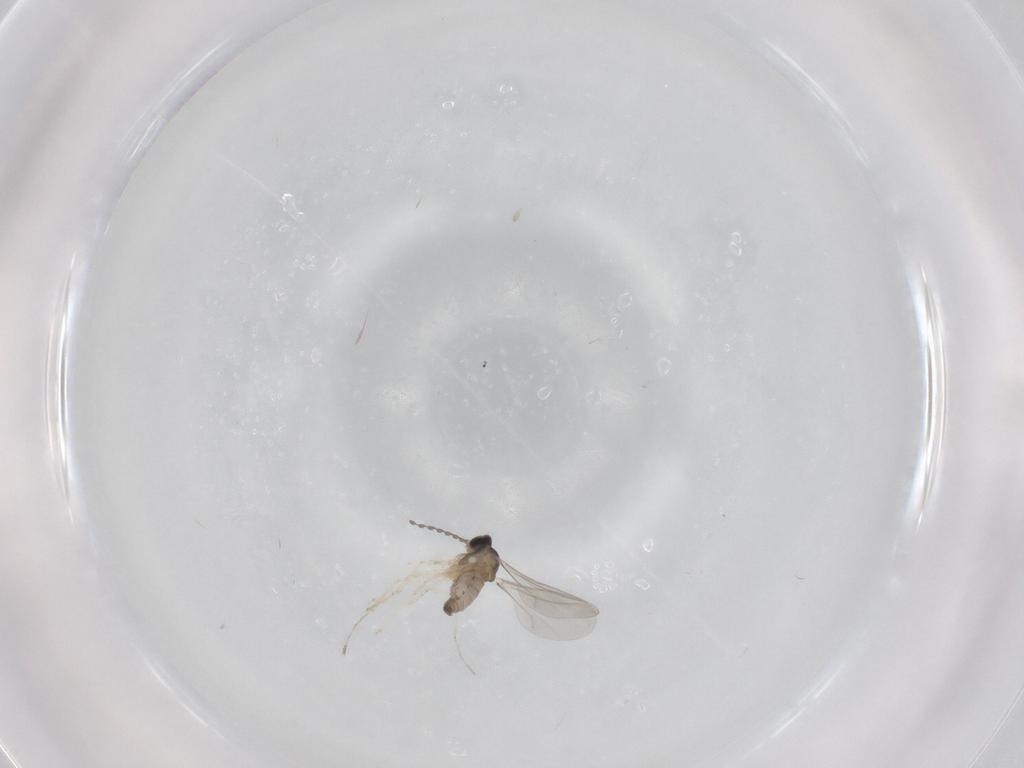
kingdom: Animalia
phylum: Arthropoda
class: Insecta
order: Diptera
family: Cecidomyiidae
